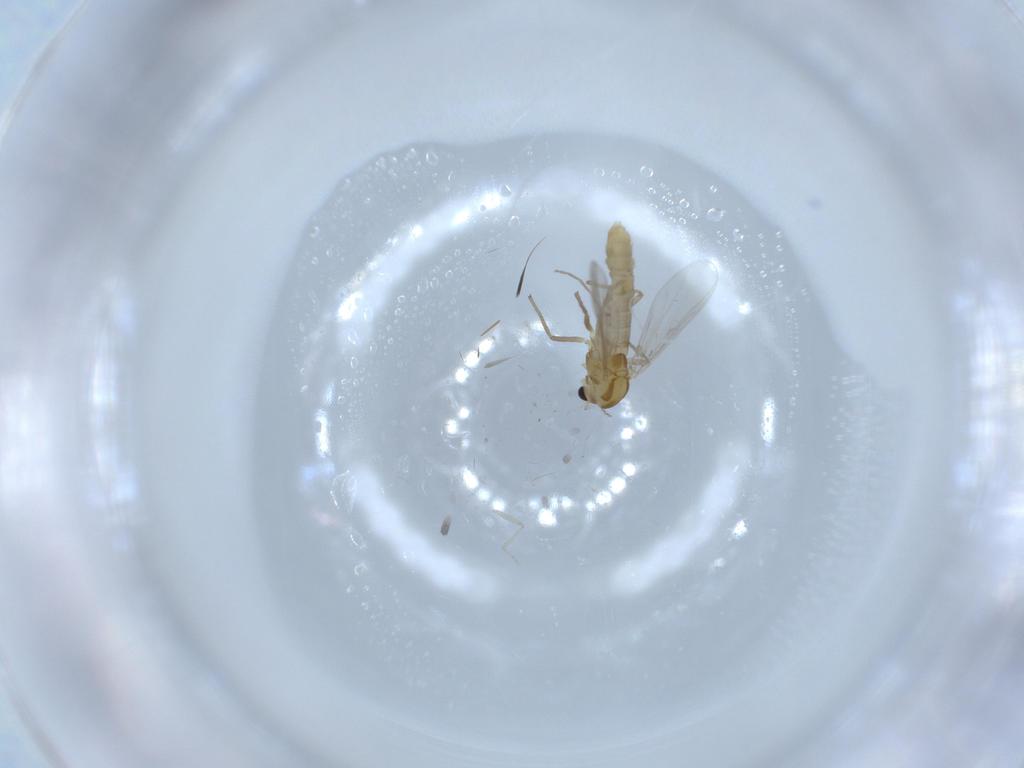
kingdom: Animalia
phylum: Arthropoda
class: Insecta
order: Diptera
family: Chironomidae
